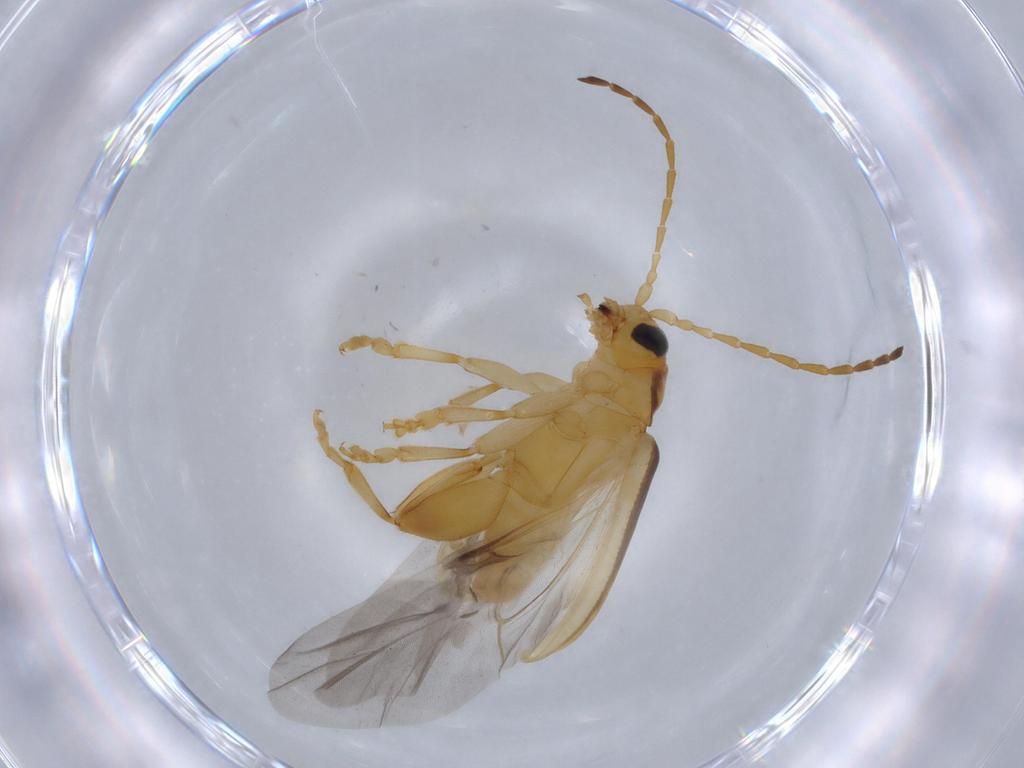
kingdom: Animalia
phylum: Arthropoda
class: Insecta
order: Coleoptera
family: Chrysomelidae
